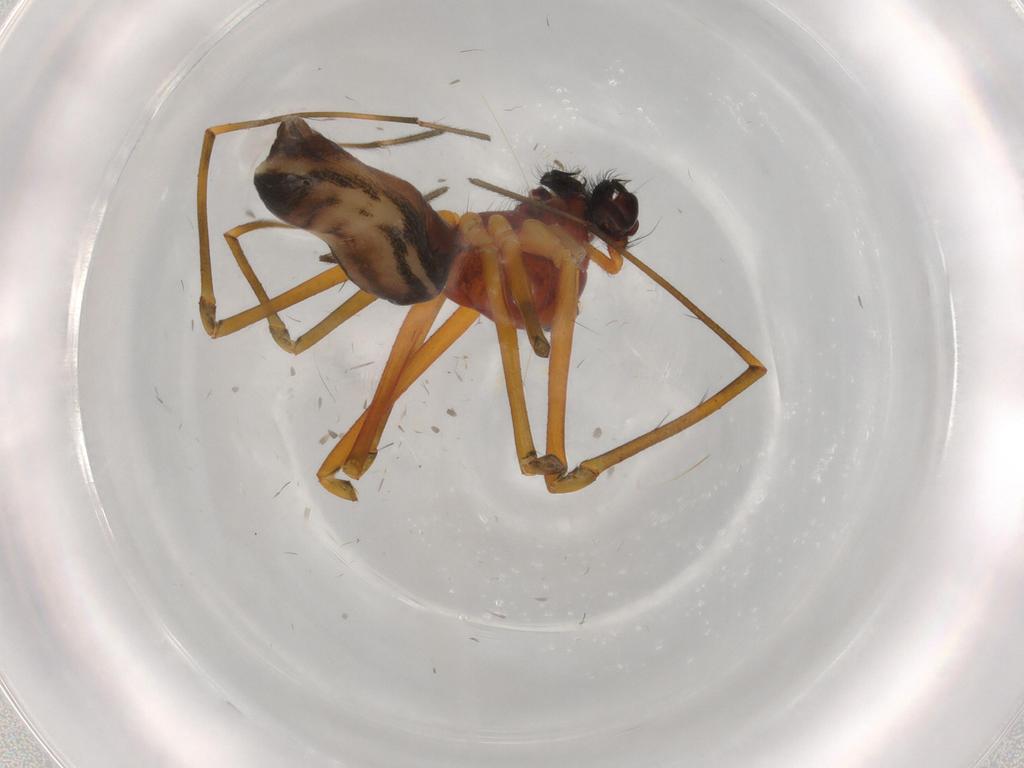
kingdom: Animalia
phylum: Arthropoda
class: Arachnida
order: Araneae
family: Linyphiidae
